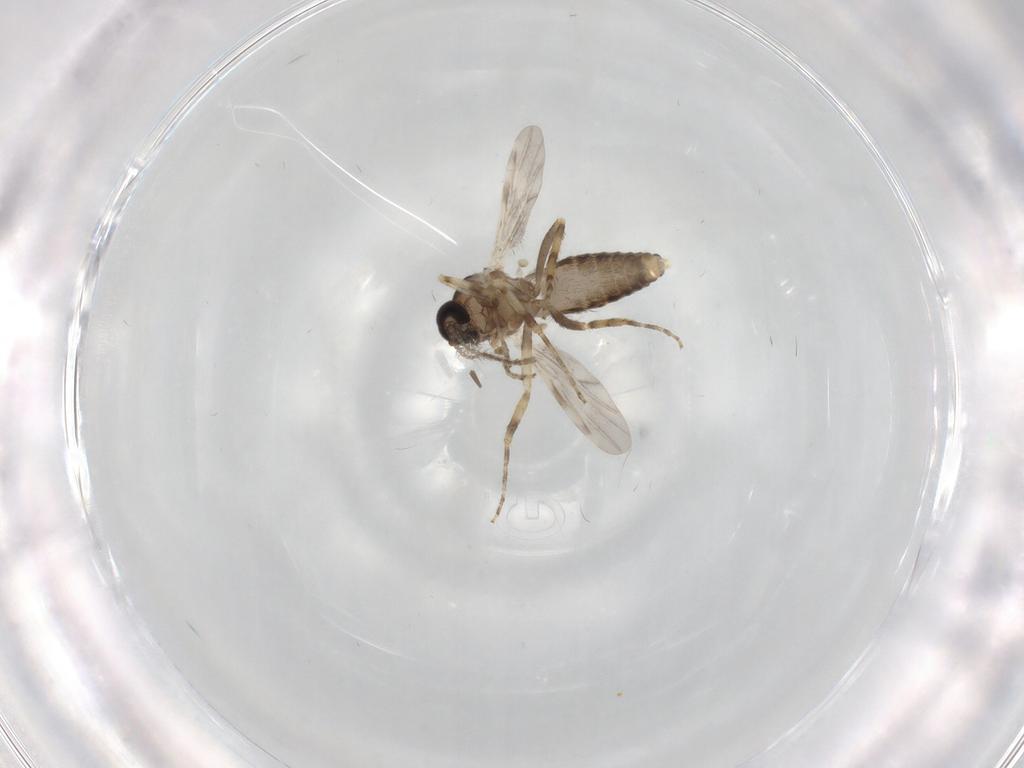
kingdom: Animalia
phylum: Arthropoda
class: Insecta
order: Diptera
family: Ceratopogonidae
